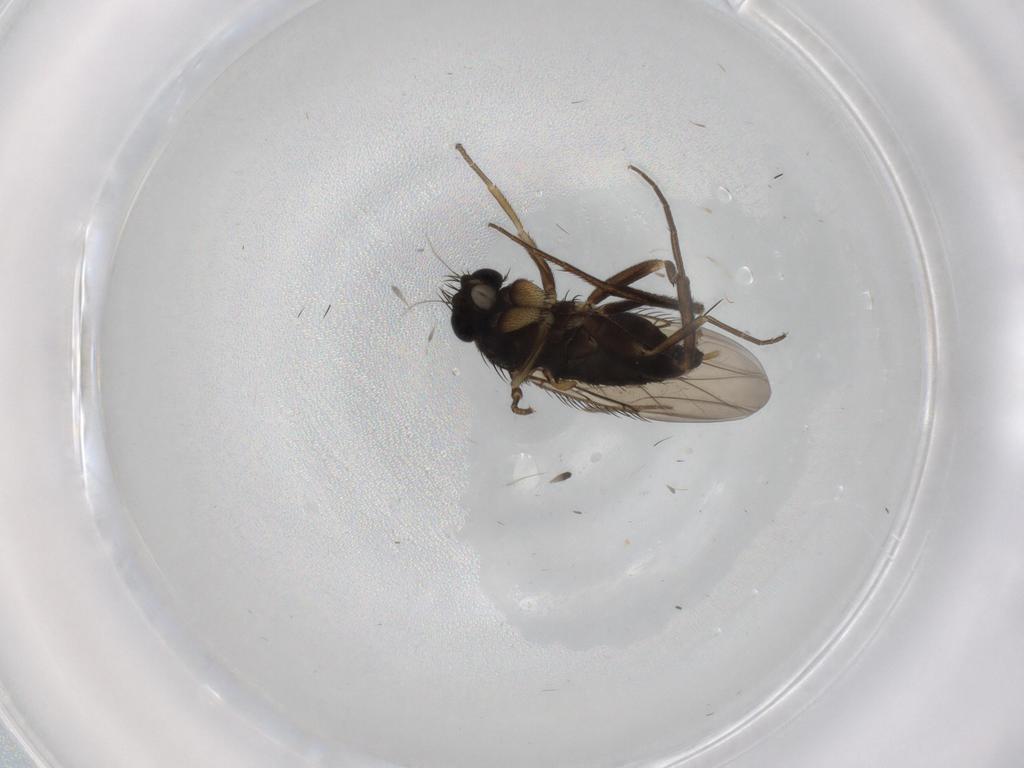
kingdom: Animalia
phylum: Arthropoda
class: Insecta
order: Diptera
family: Phoridae
